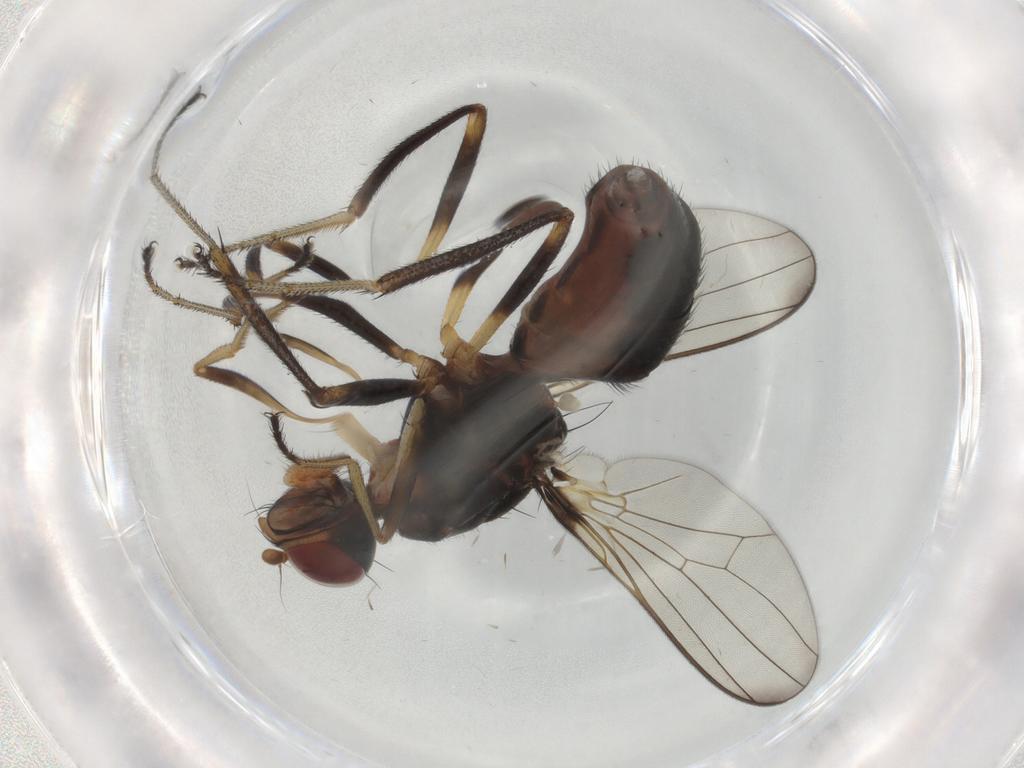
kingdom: Animalia
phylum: Arthropoda
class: Insecta
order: Diptera
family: Sepsidae
